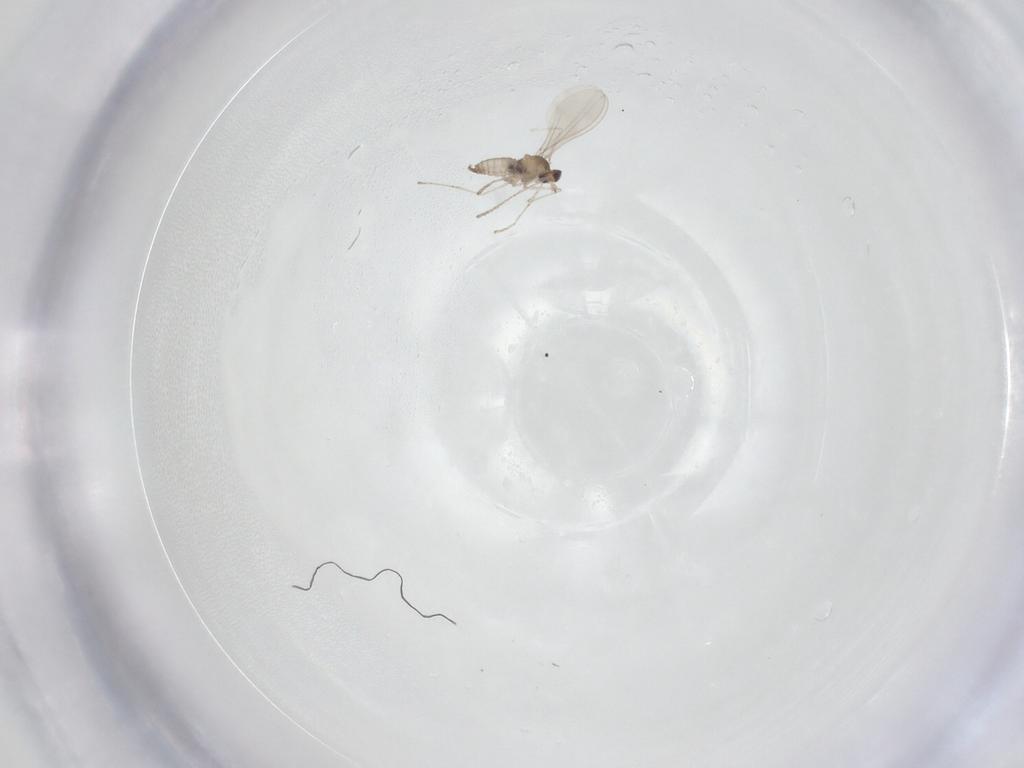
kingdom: Animalia
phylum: Arthropoda
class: Insecta
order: Diptera
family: Cecidomyiidae
